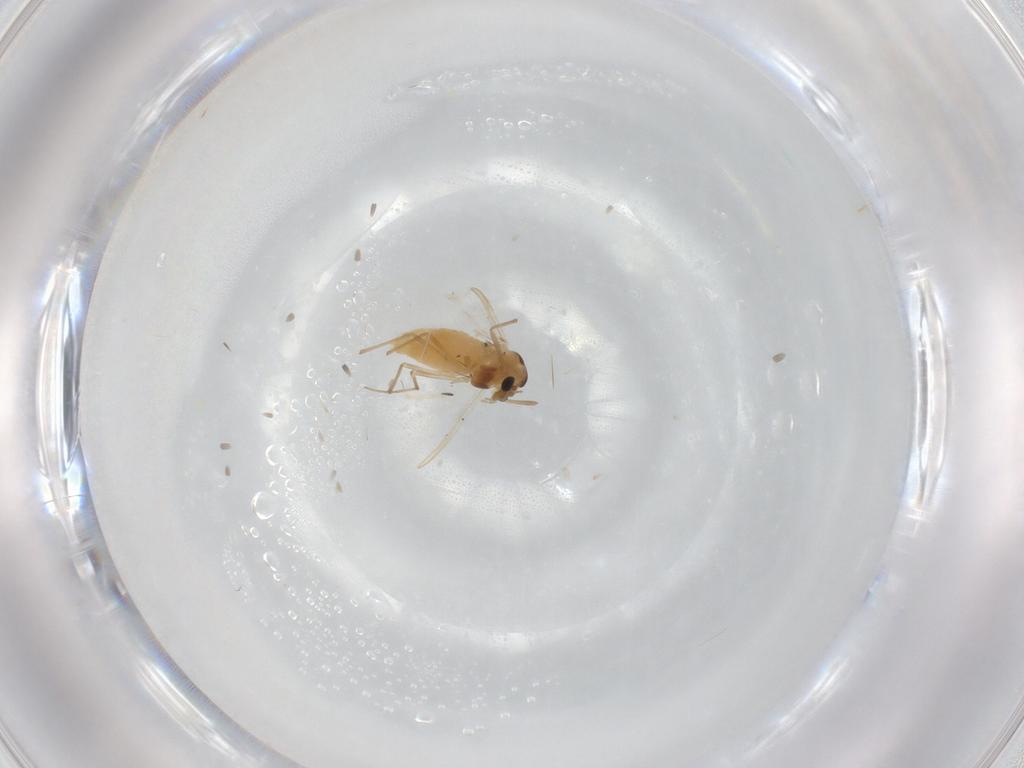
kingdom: Animalia
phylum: Arthropoda
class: Insecta
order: Diptera
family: Chironomidae
